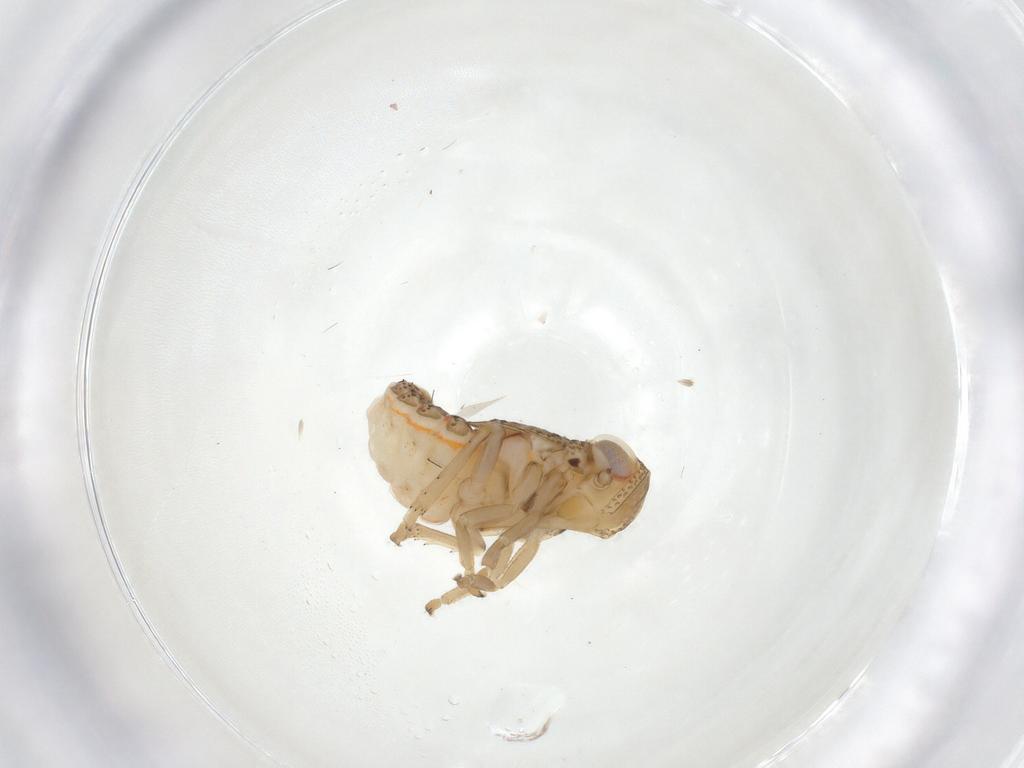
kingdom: Animalia
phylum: Arthropoda
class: Insecta
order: Hemiptera
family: Issidae
